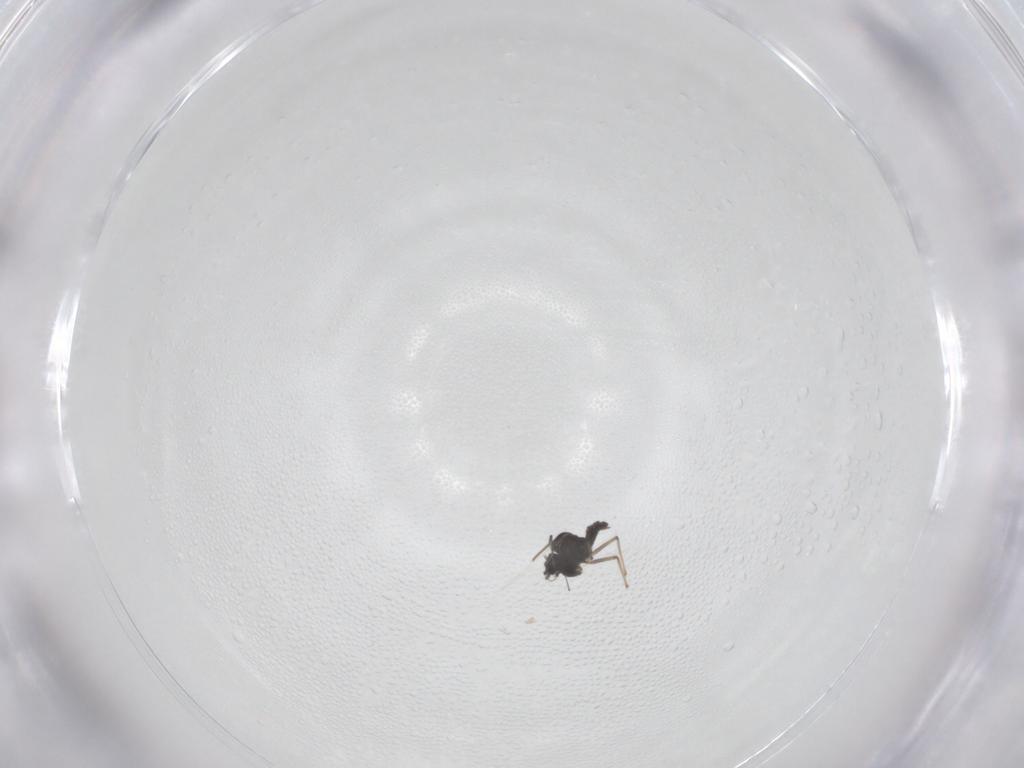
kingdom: Animalia
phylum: Arthropoda
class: Insecta
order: Diptera
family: Chironomidae
